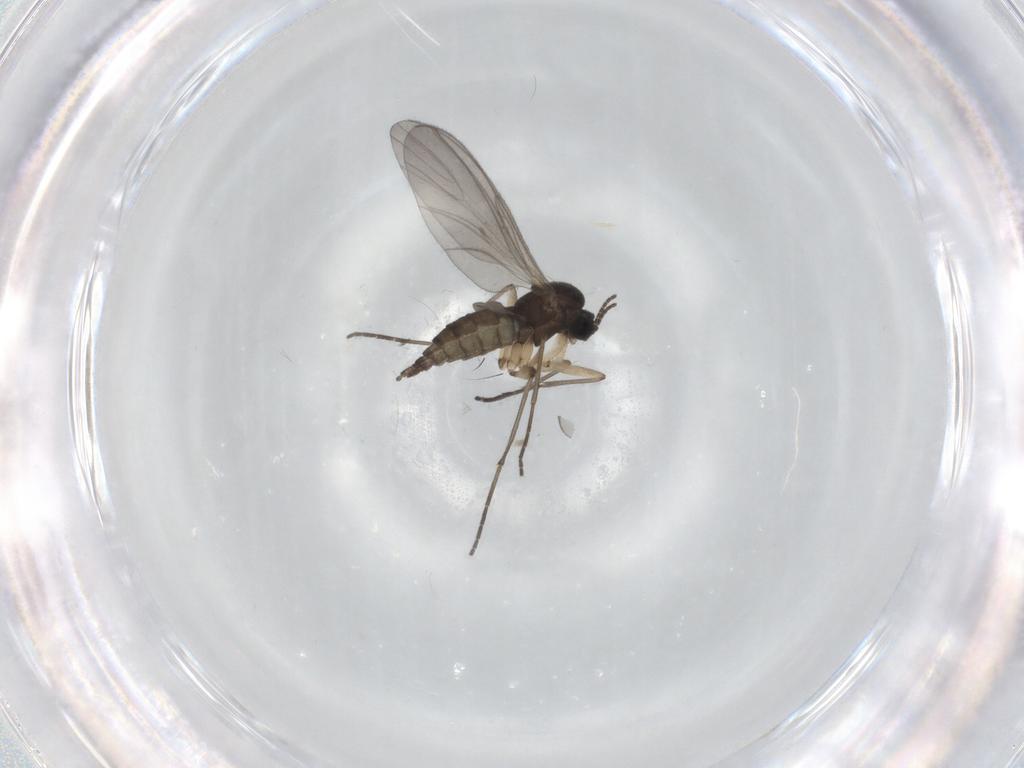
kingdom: Animalia
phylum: Arthropoda
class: Insecta
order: Diptera
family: Sciaridae
